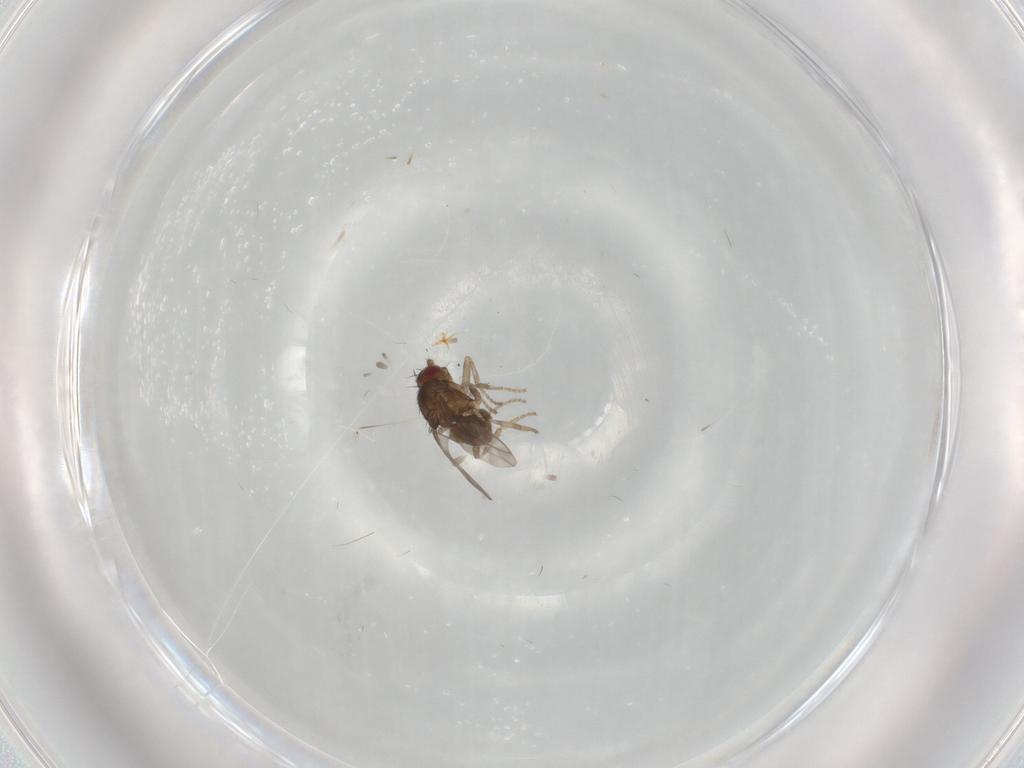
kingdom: Animalia
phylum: Arthropoda
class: Insecta
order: Diptera
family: Sphaeroceridae
